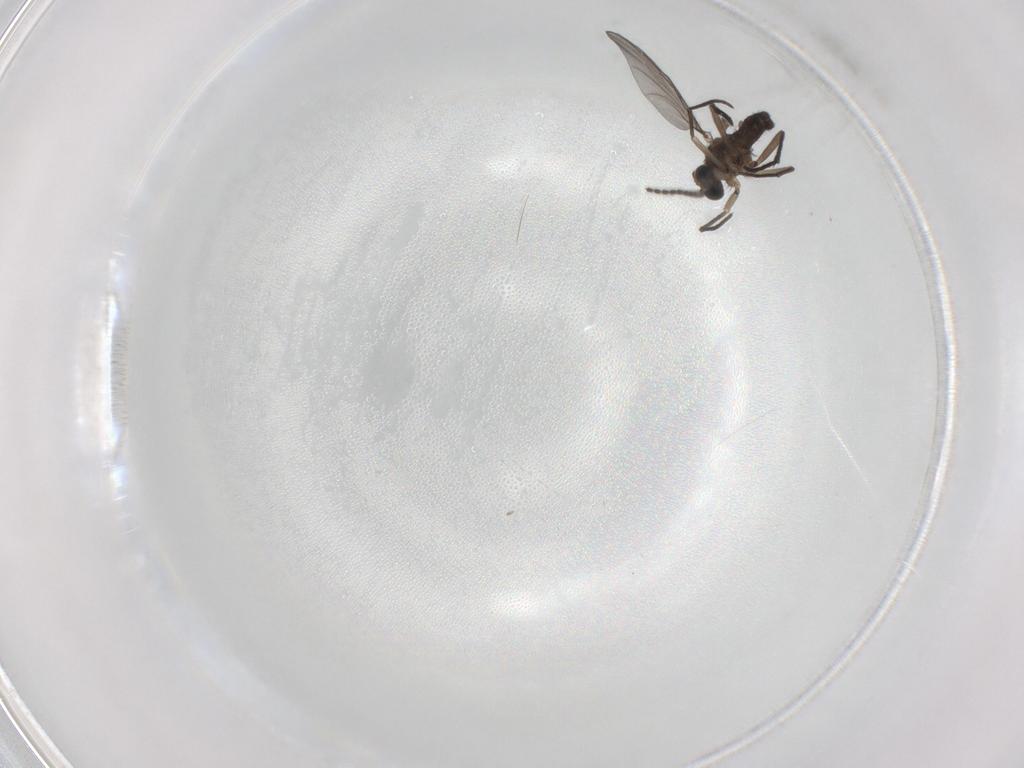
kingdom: Animalia
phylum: Arthropoda
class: Insecta
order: Diptera
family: Sciaridae
